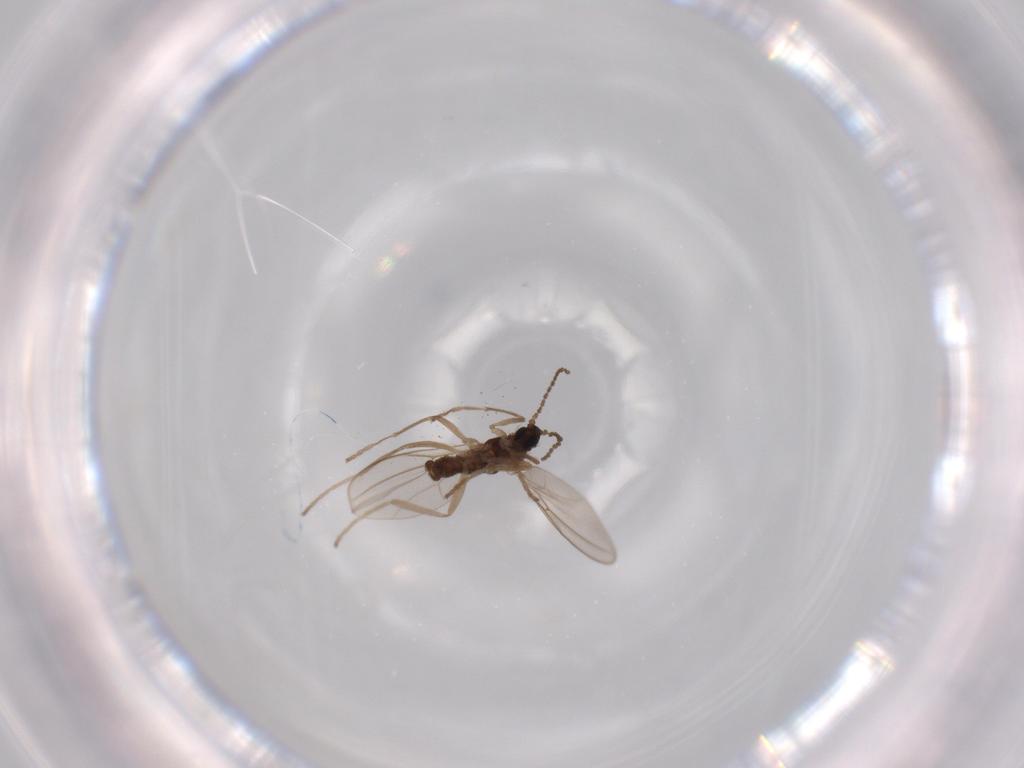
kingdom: Animalia
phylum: Arthropoda
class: Insecta
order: Diptera
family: Cecidomyiidae
